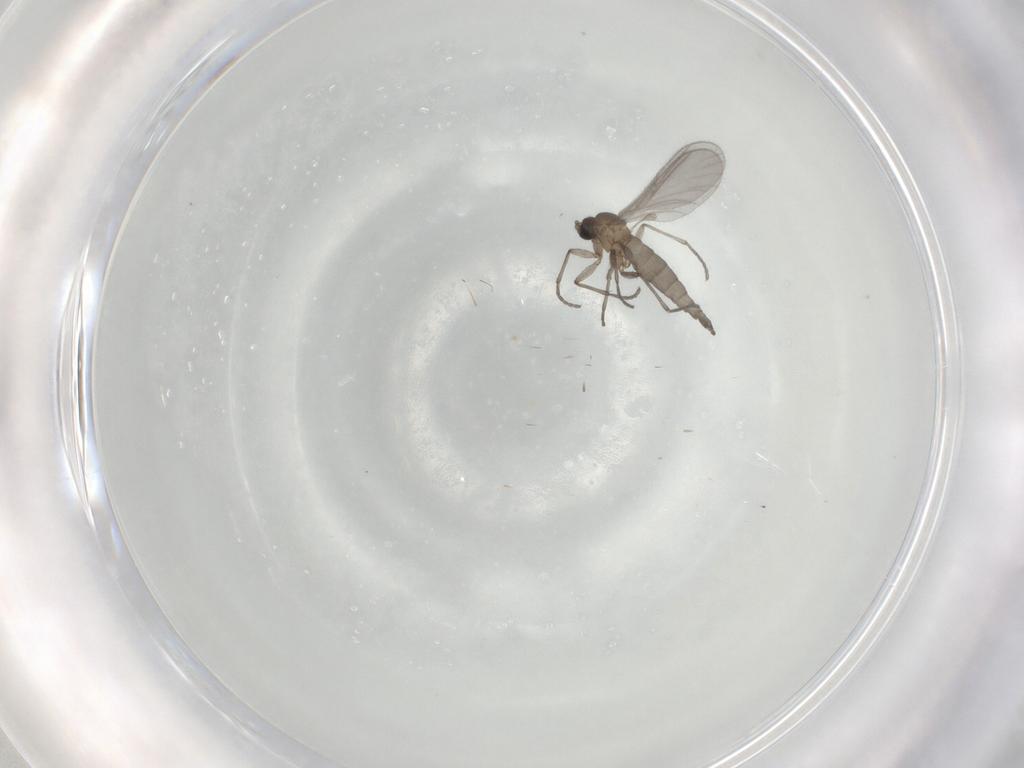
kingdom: Animalia
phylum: Arthropoda
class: Insecta
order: Diptera
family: Sciaridae
